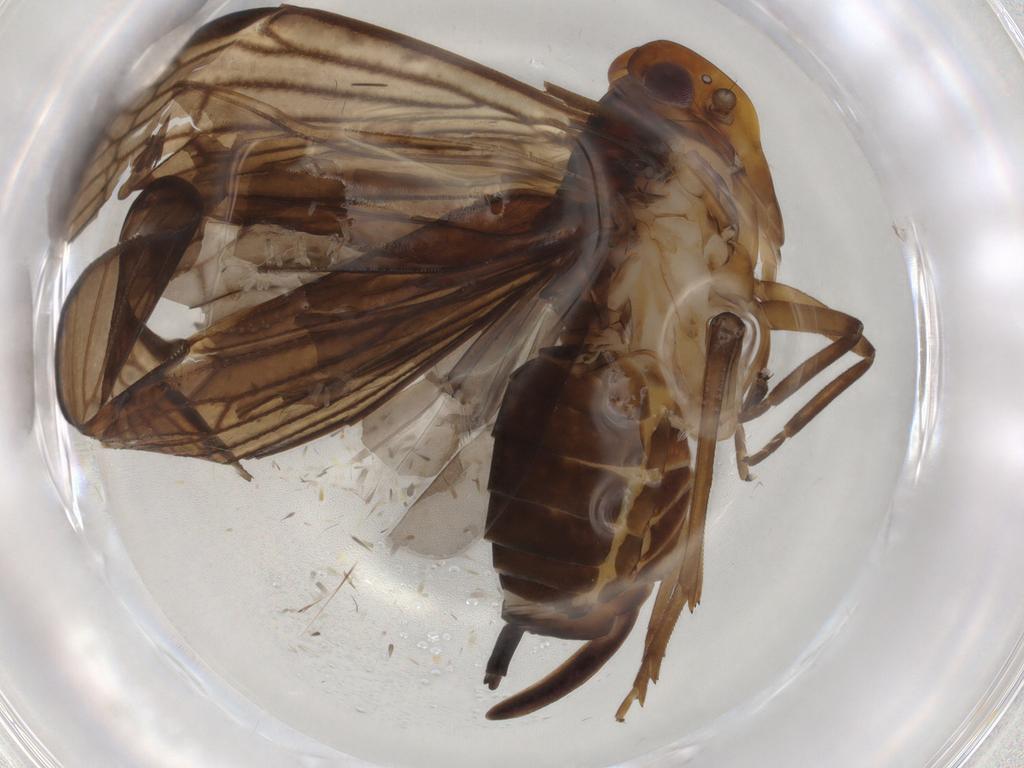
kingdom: Animalia
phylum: Arthropoda
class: Insecta
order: Hemiptera
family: Cixiidae
